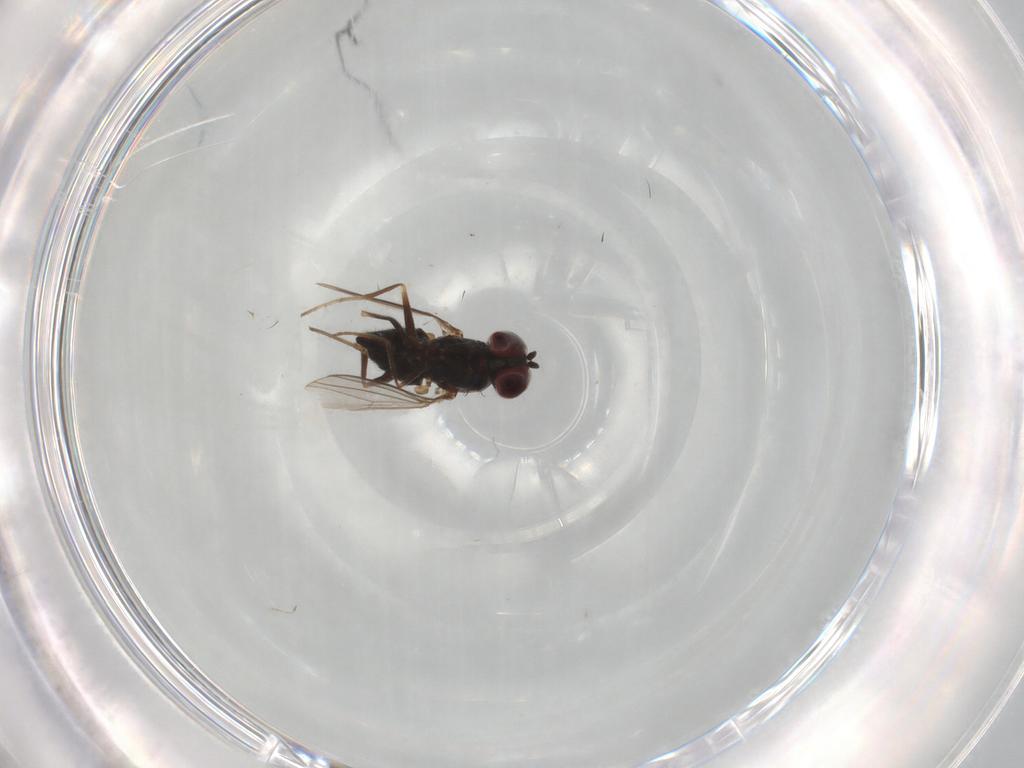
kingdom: Animalia
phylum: Arthropoda
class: Insecta
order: Diptera
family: Dolichopodidae
